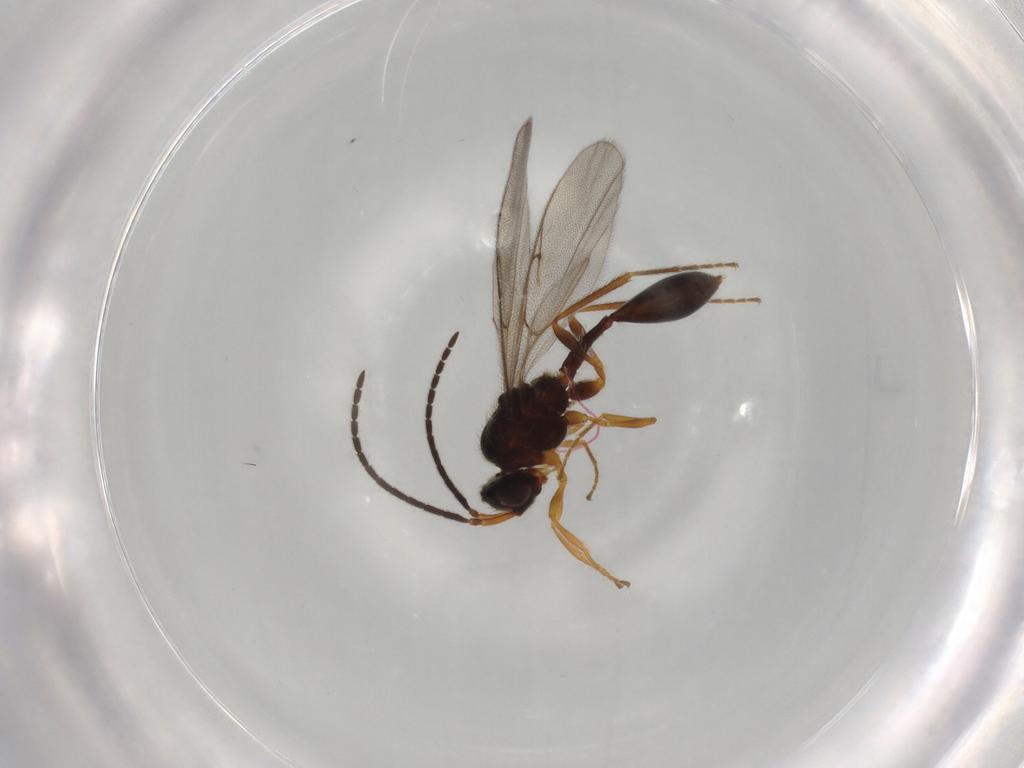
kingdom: Animalia
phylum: Arthropoda
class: Insecta
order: Hymenoptera
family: Diapriidae
